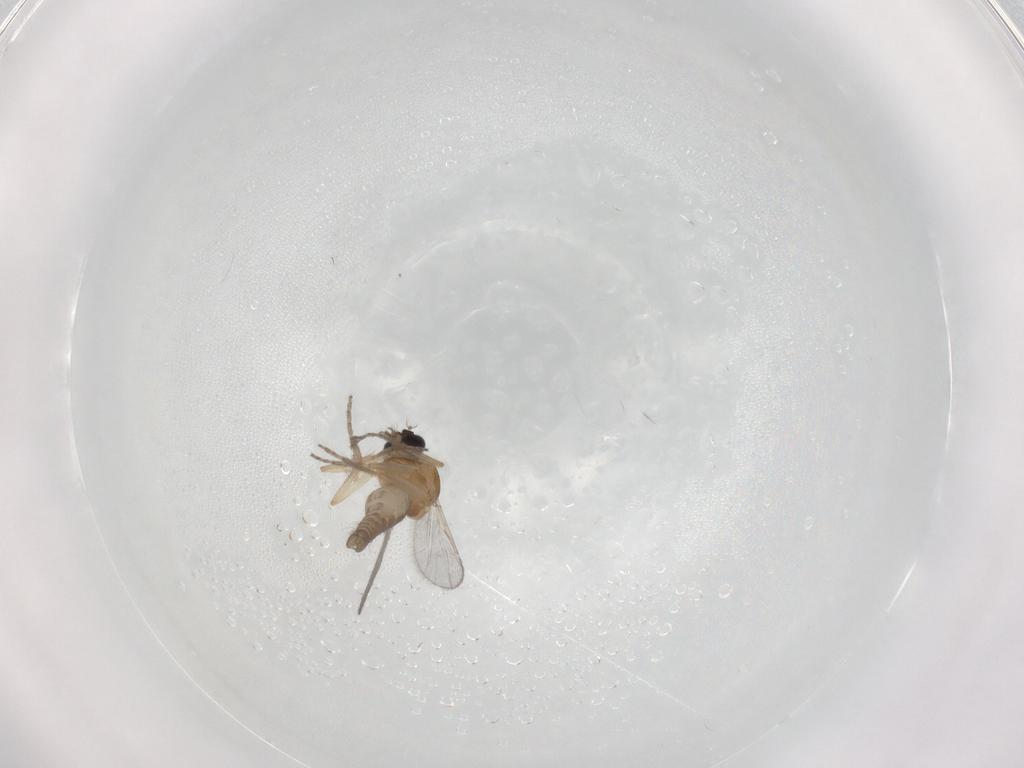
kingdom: Animalia
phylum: Arthropoda
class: Insecta
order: Diptera
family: Ceratopogonidae
